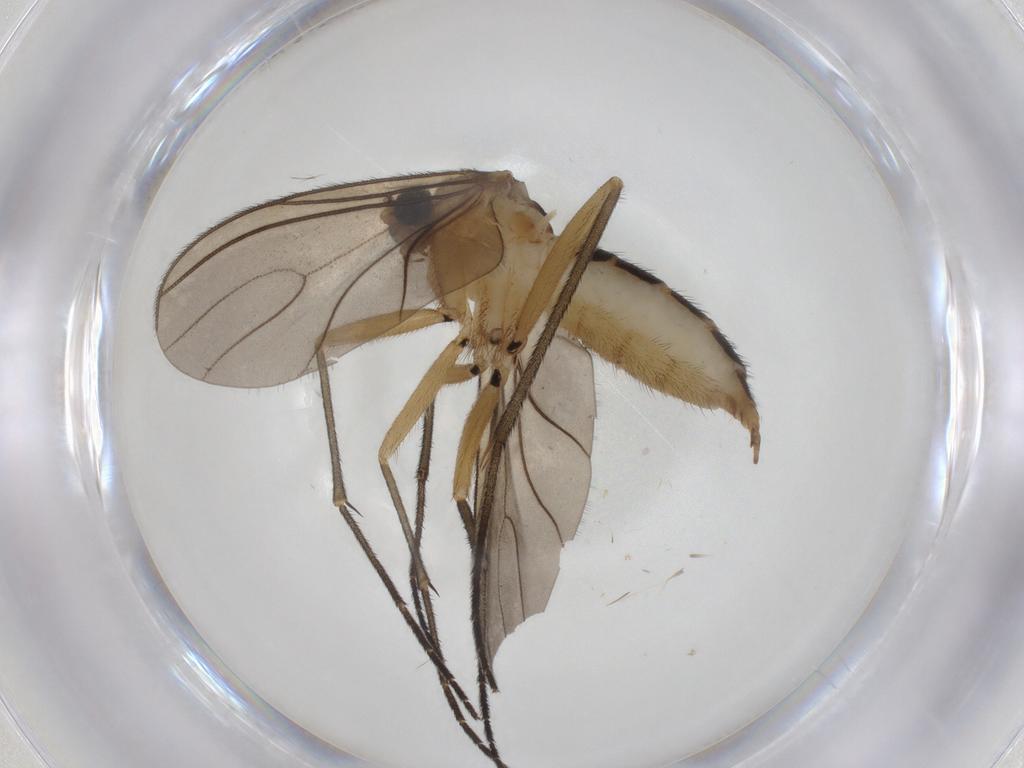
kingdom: Animalia
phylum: Arthropoda
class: Insecta
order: Diptera
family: Sciaridae
